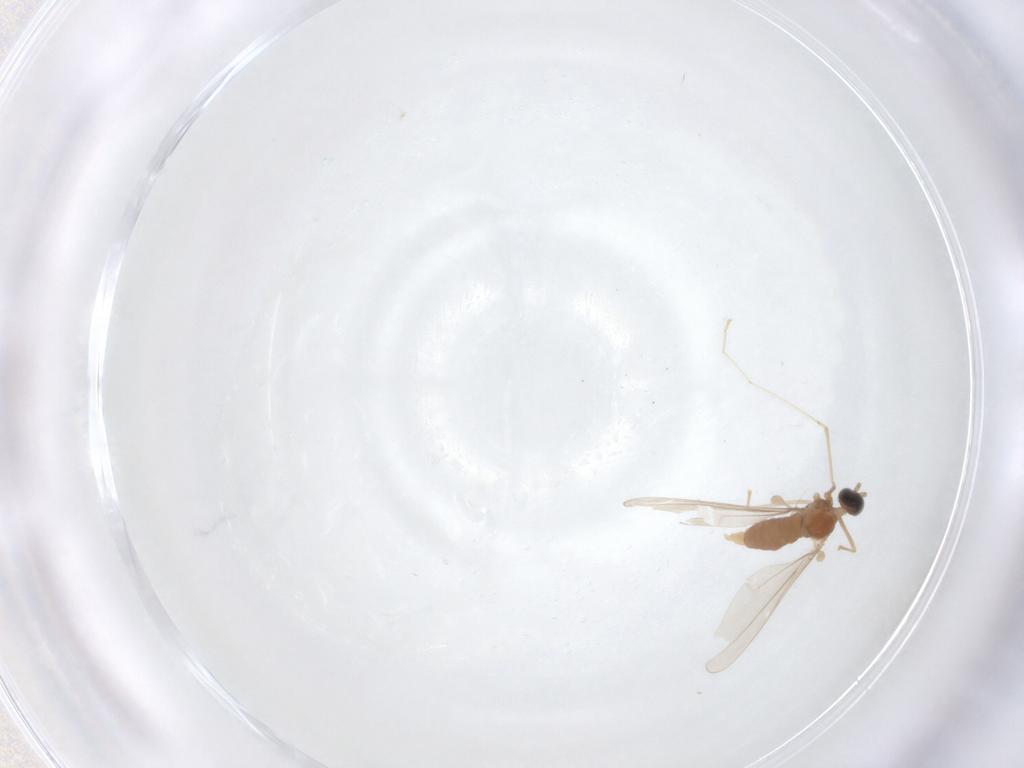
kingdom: Animalia
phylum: Arthropoda
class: Insecta
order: Diptera
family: Cecidomyiidae
